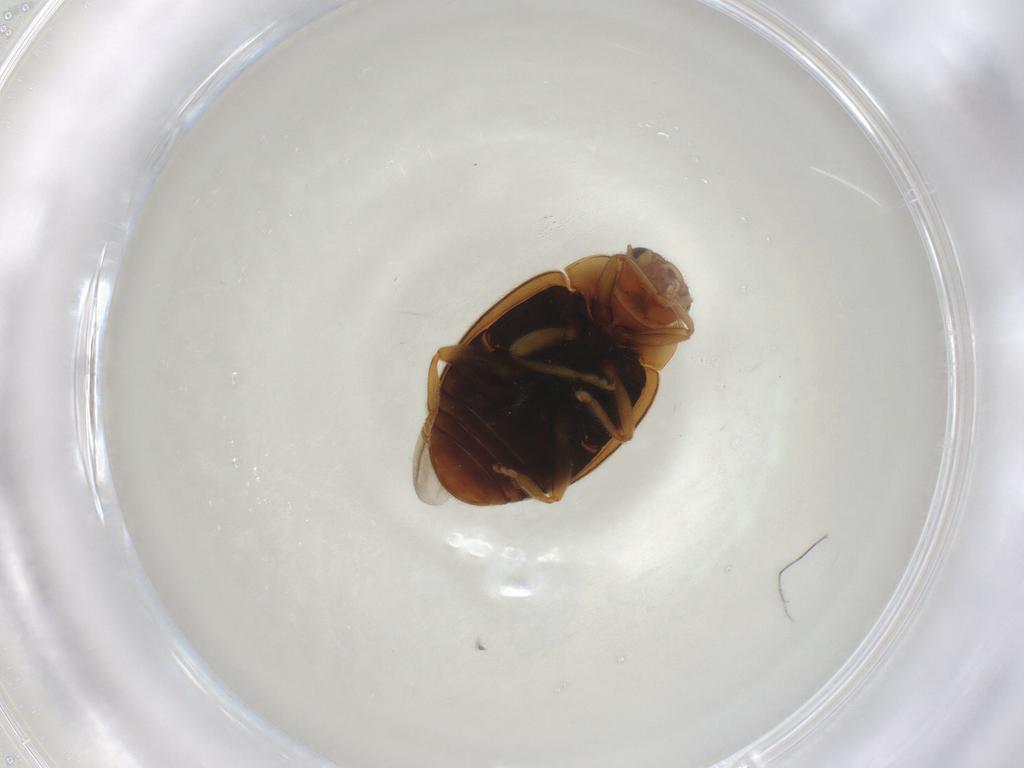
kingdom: Animalia
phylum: Arthropoda
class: Insecta
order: Coleoptera
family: Coccinellidae
